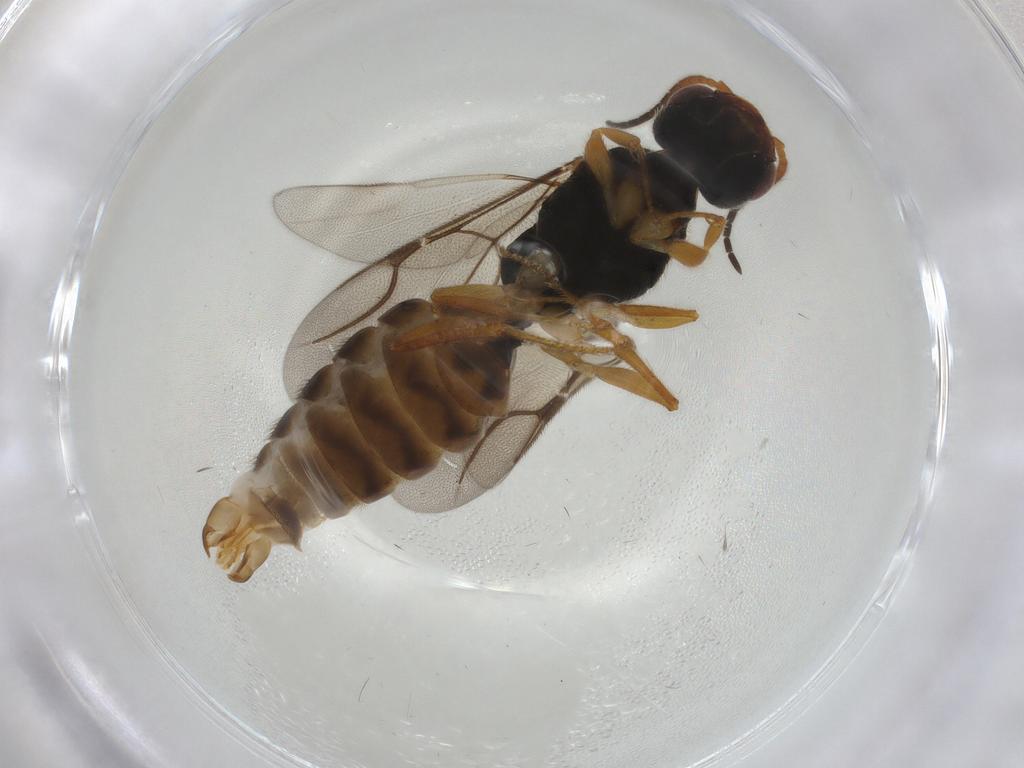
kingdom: Animalia
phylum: Arthropoda
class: Insecta
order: Hymenoptera
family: Bethylidae
